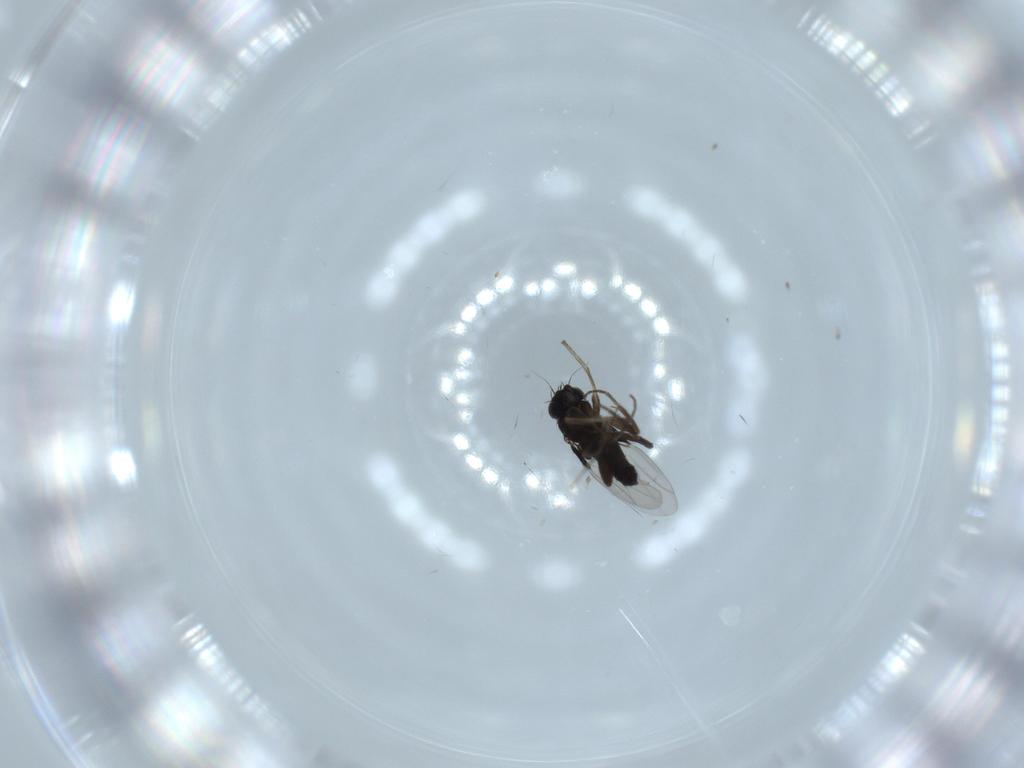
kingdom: Animalia
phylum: Arthropoda
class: Insecta
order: Diptera
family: Phoridae
